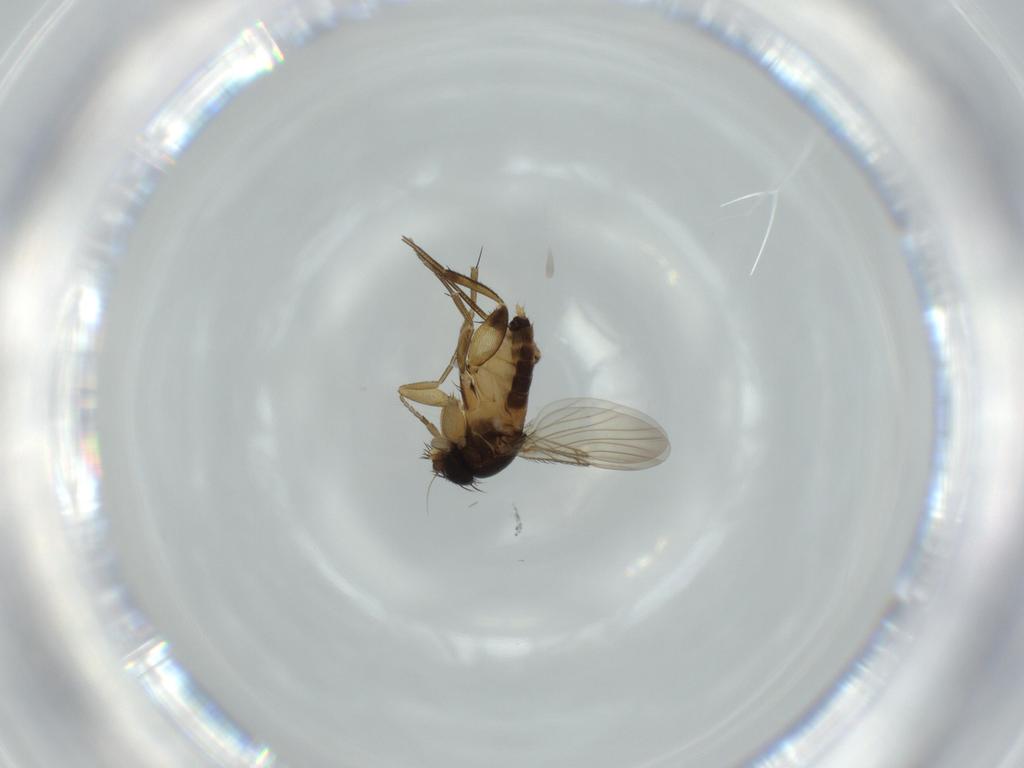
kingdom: Animalia
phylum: Arthropoda
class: Insecta
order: Diptera
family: Phoridae
